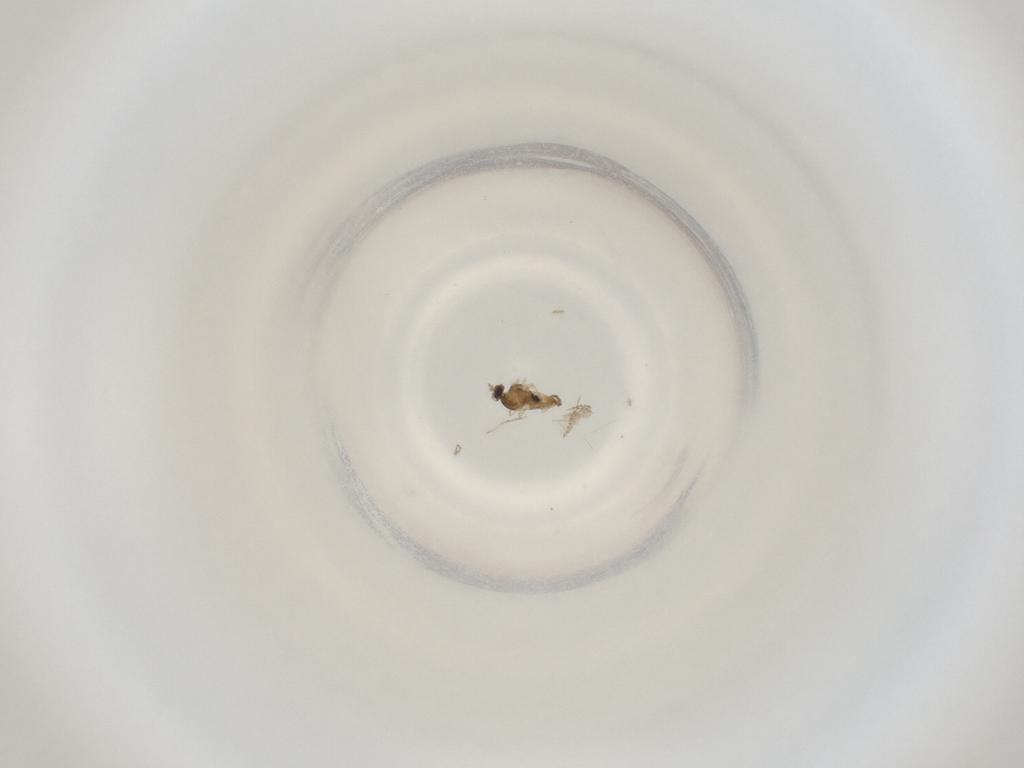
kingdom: Animalia
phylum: Arthropoda
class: Insecta
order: Diptera
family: Cecidomyiidae
